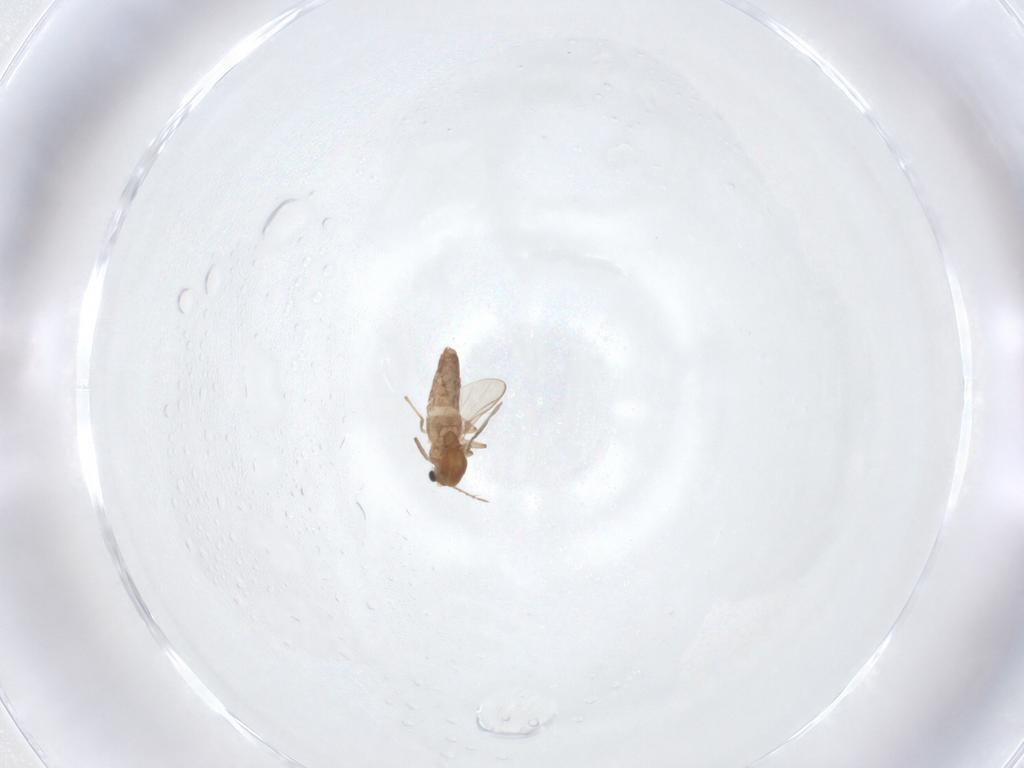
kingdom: Animalia
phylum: Arthropoda
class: Insecta
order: Diptera
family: Chironomidae
